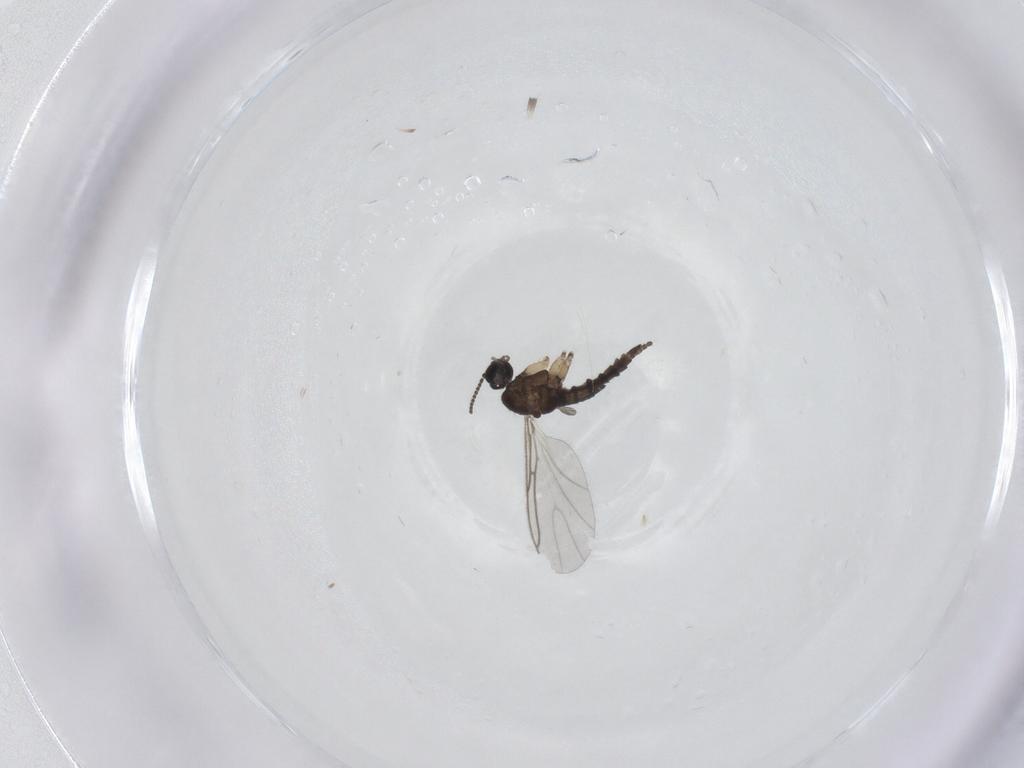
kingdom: Animalia
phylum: Arthropoda
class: Insecta
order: Diptera
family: Sciaridae
